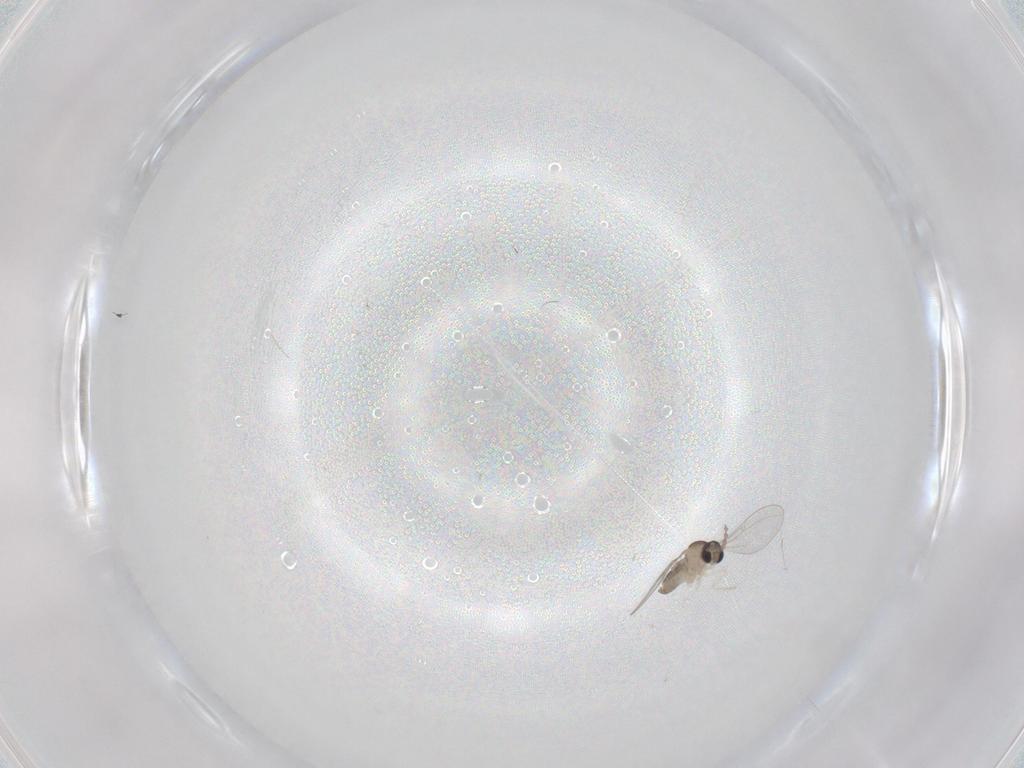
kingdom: Animalia
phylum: Arthropoda
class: Insecta
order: Diptera
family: Cecidomyiidae
